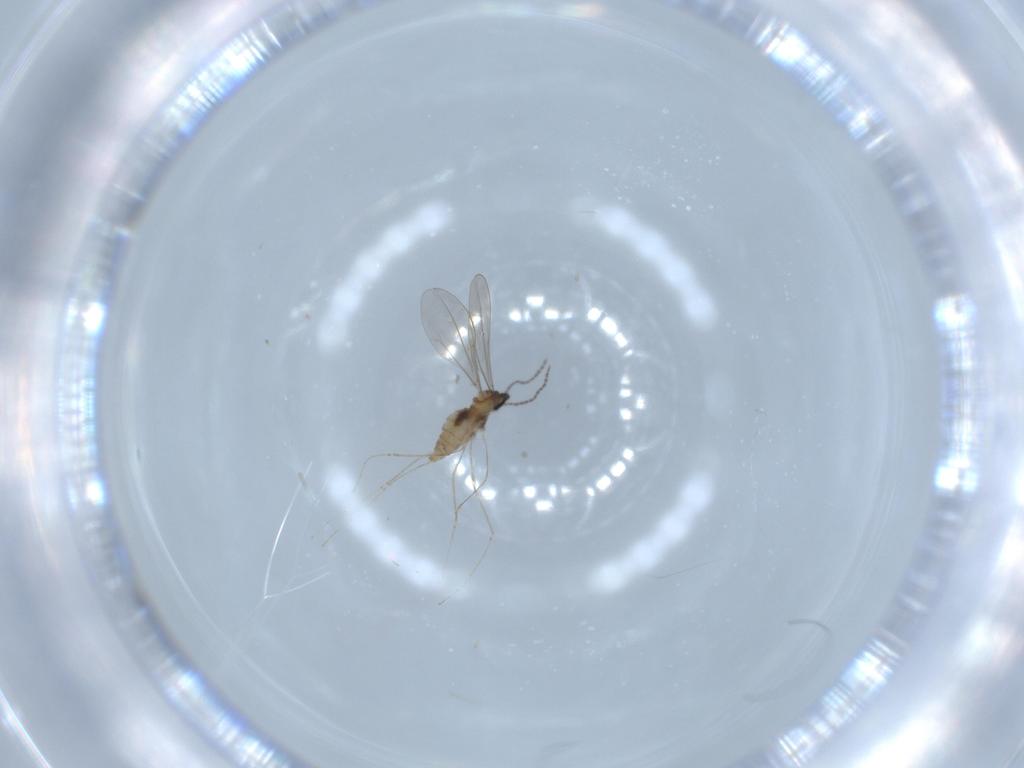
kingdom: Animalia
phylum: Arthropoda
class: Insecta
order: Diptera
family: Cecidomyiidae
